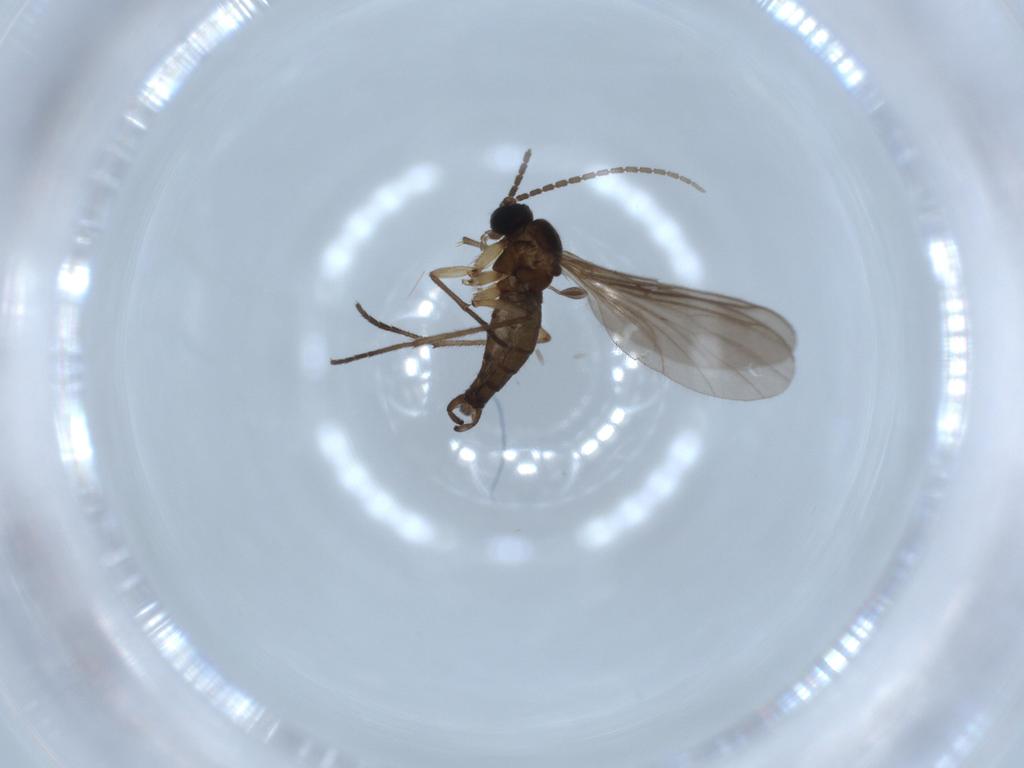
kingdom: Animalia
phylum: Arthropoda
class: Insecta
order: Diptera
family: Sciaridae
